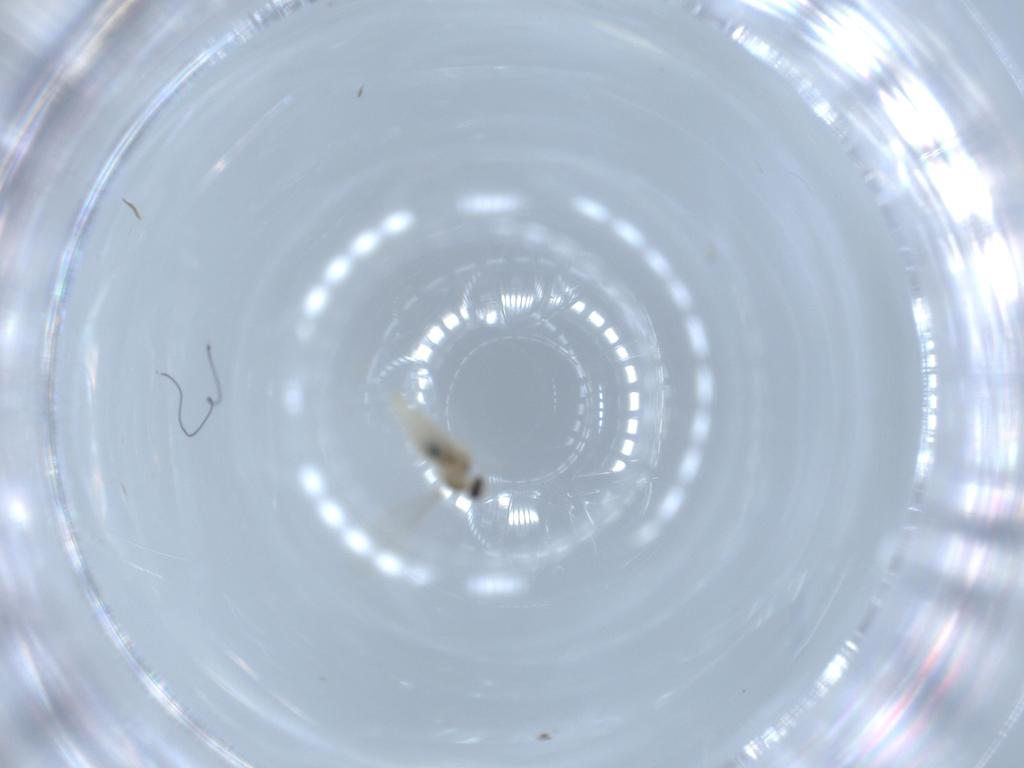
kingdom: Animalia
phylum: Arthropoda
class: Insecta
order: Diptera
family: Cecidomyiidae
